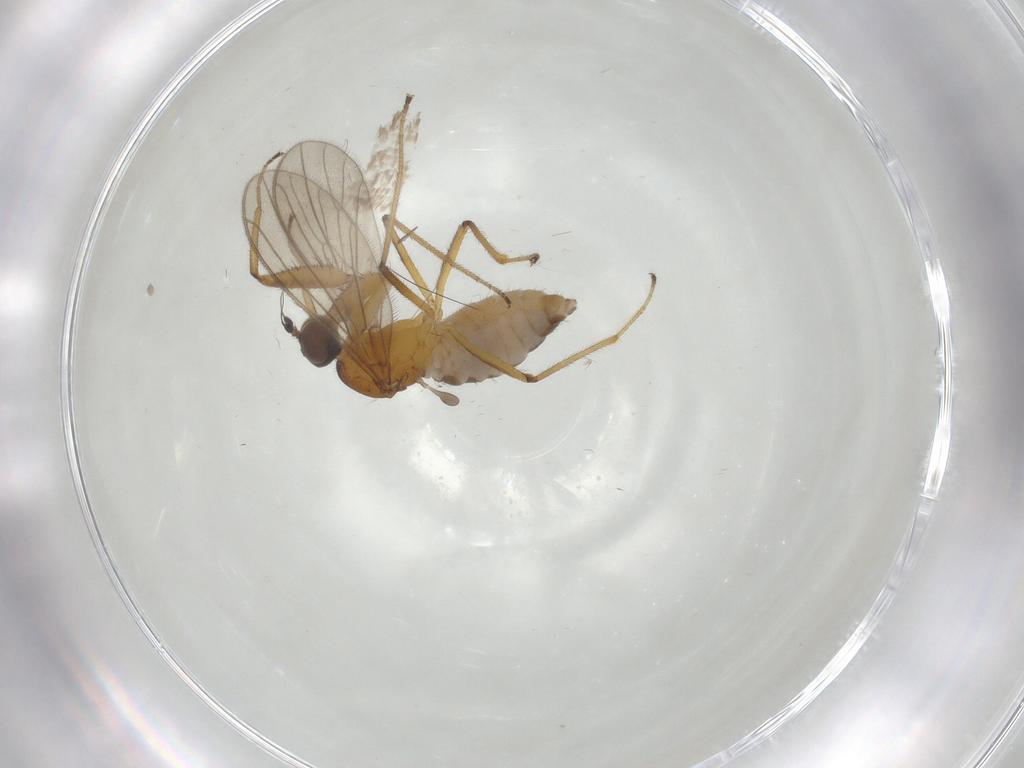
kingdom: Animalia
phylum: Arthropoda
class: Insecta
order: Diptera
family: Empididae
